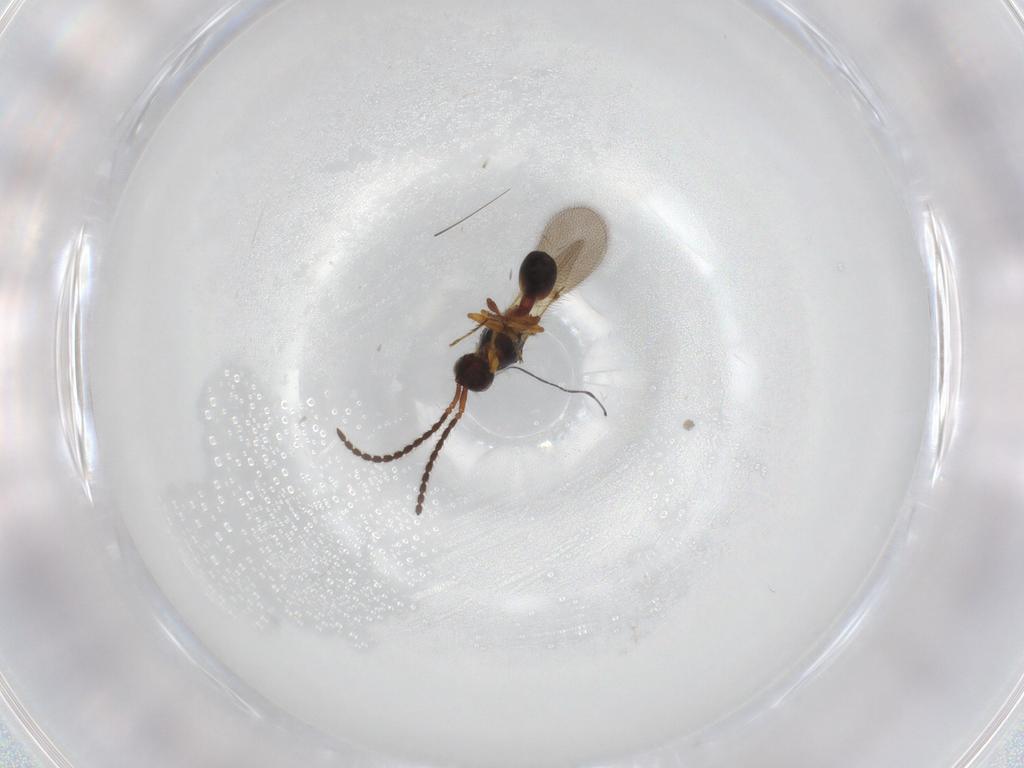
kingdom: Animalia
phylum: Arthropoda
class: Insecta
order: Hymenoptera
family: Diapriidae
